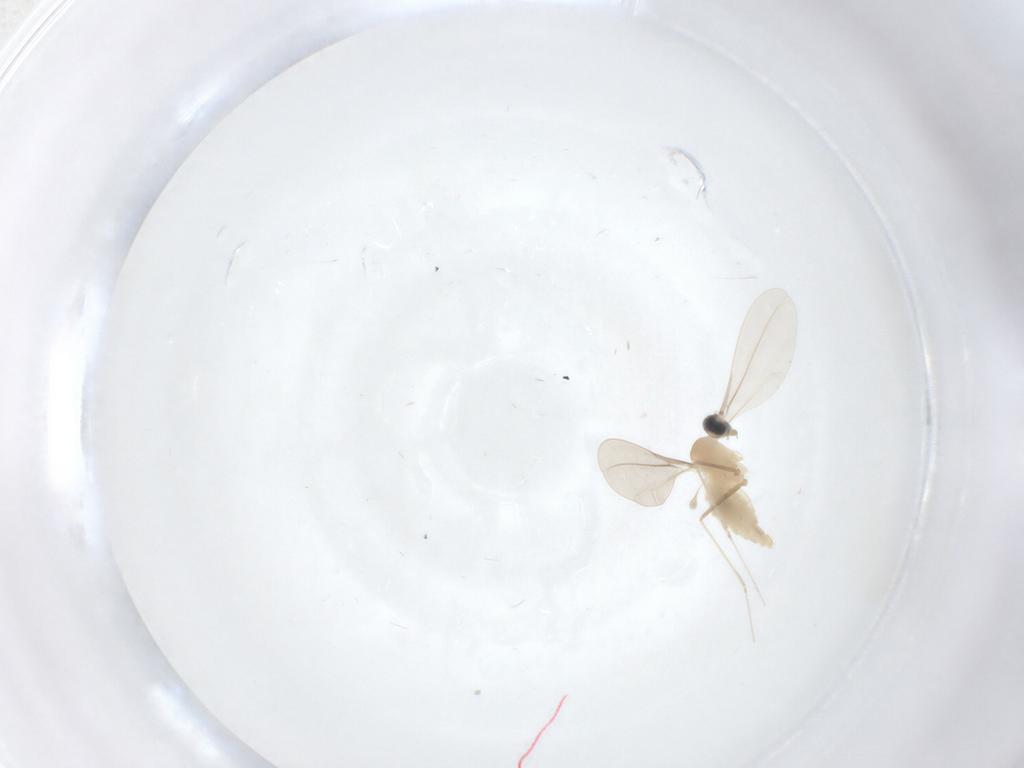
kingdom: Animalia
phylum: Arthropoda
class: Insecta
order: Diptera
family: Cecidomyiidae
